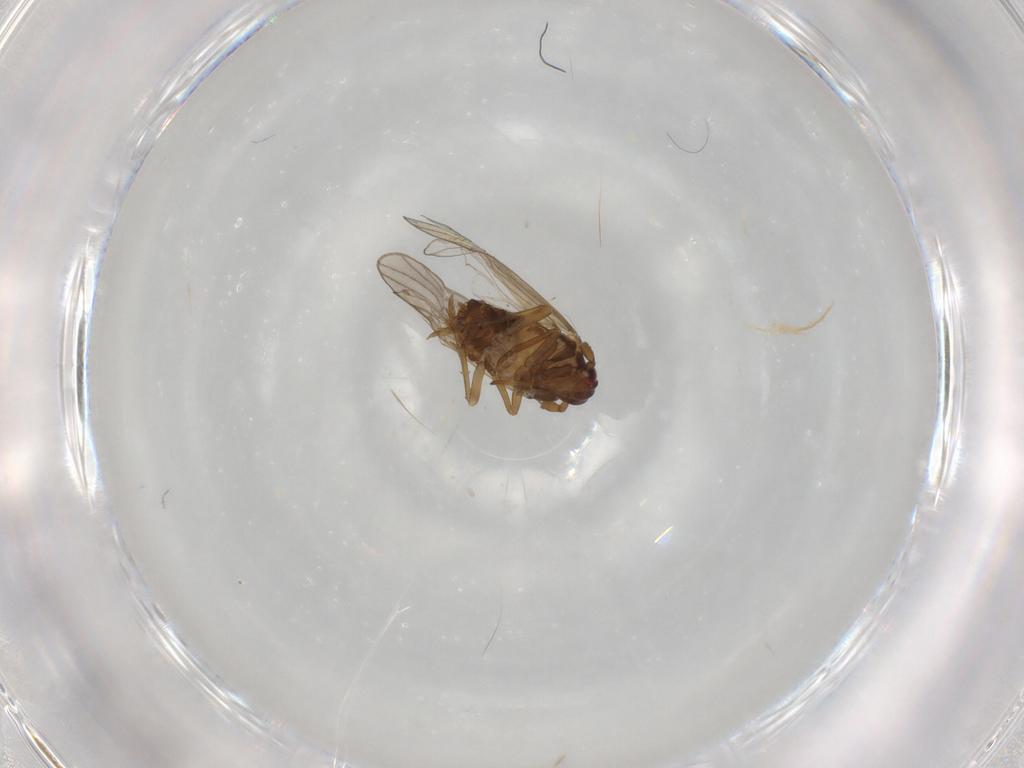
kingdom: Animalia
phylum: Arthropoda
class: Insecta
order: Hemiptera
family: Delphacidae
